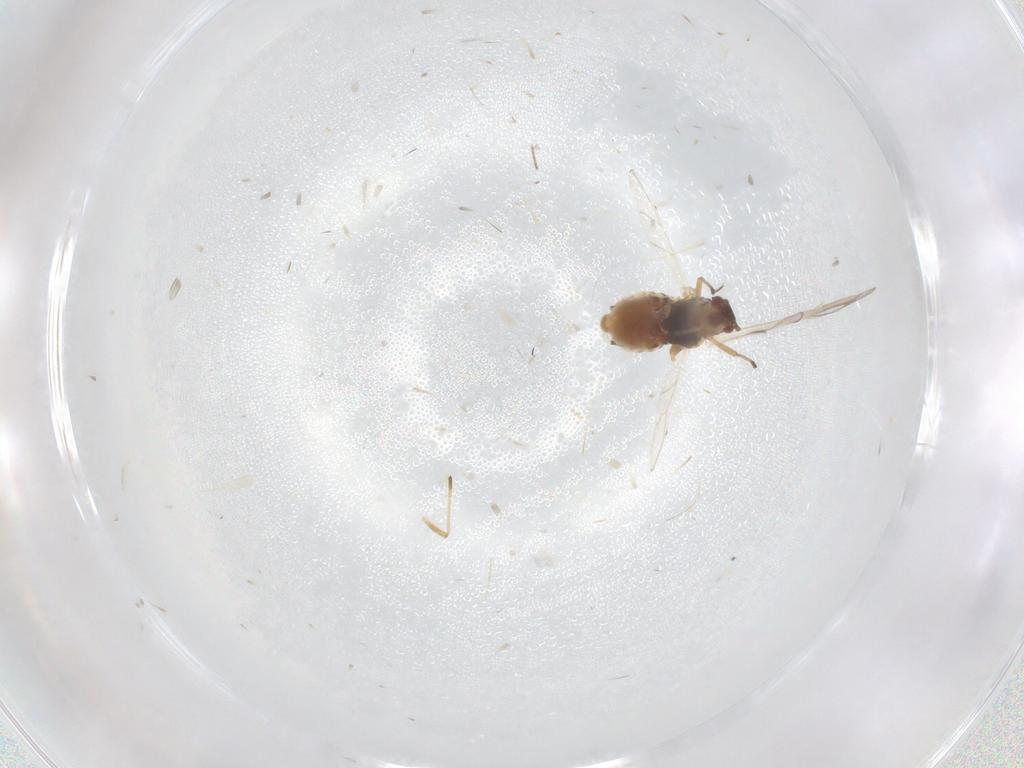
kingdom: Animalia
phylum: Arthropoda
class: Insecta
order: Hemiptera
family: Aphididae
